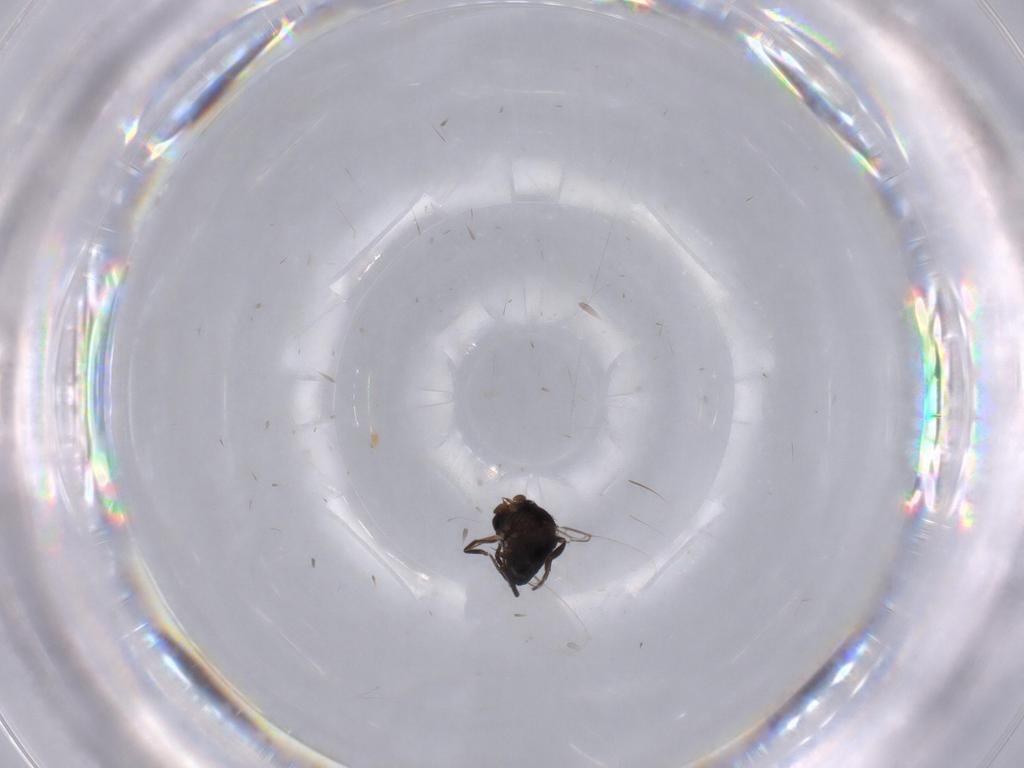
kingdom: Animalia
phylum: Arthropoda
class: Insecta
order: Diptera
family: Phoridae
